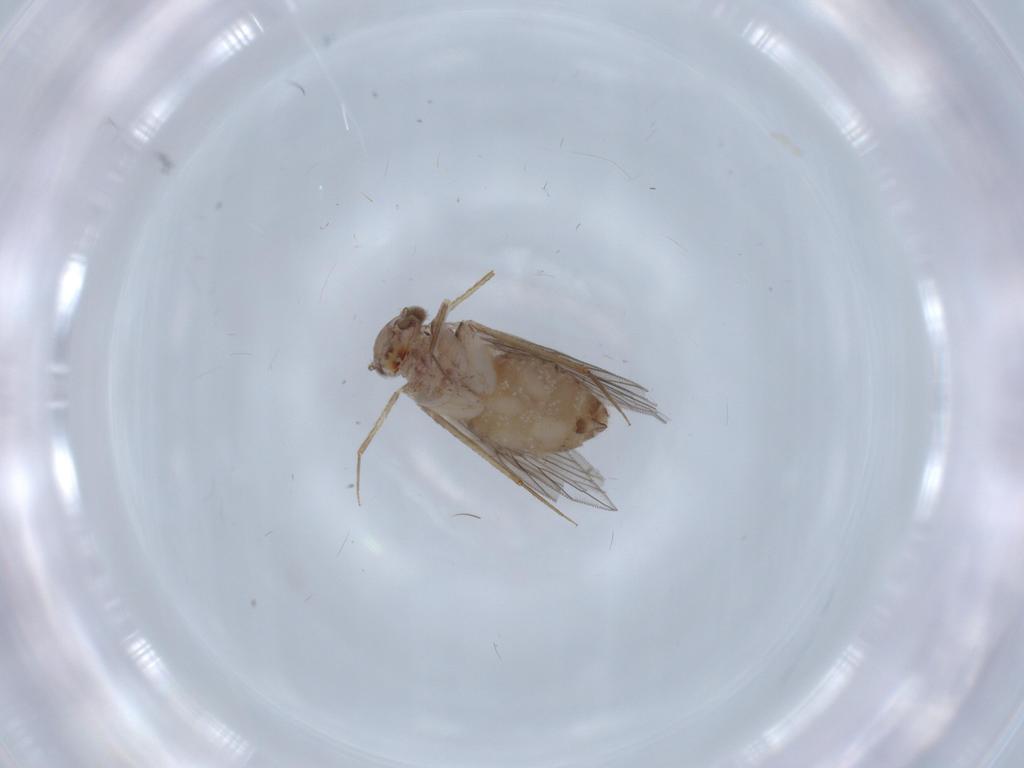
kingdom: Animalia
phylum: Arthropoda
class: Insecta
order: Psocodea
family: Lepidopsocidae
